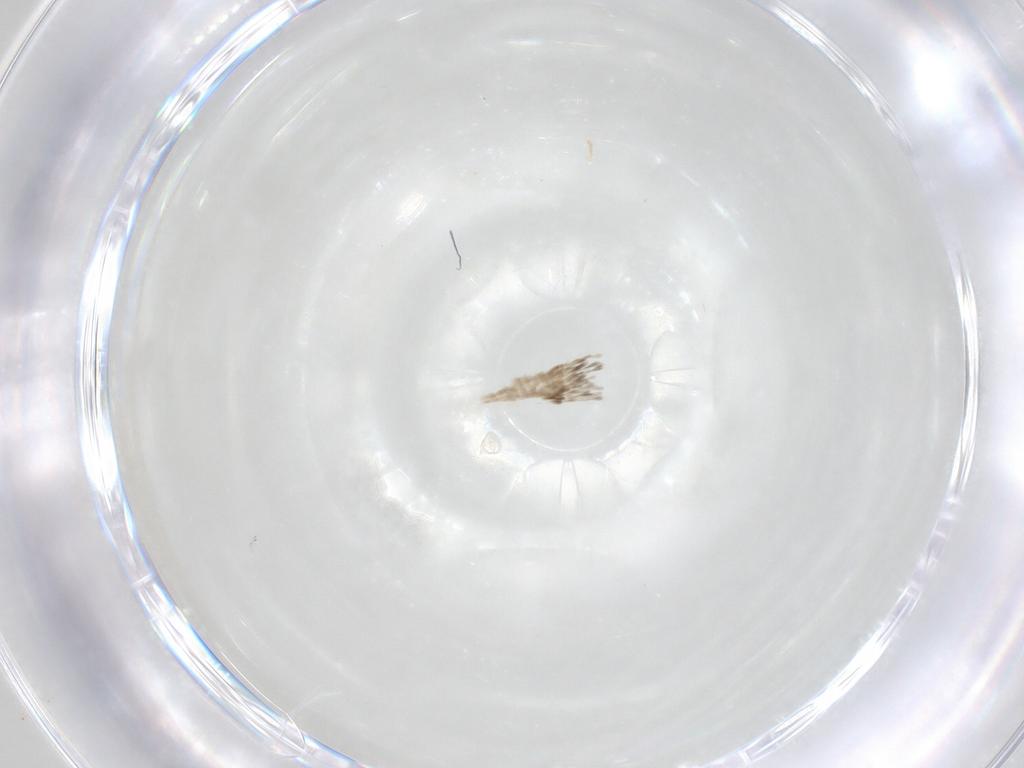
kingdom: Animalia
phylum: Arthropoda
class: Insecta
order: Lepidoptera
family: Erebidae
